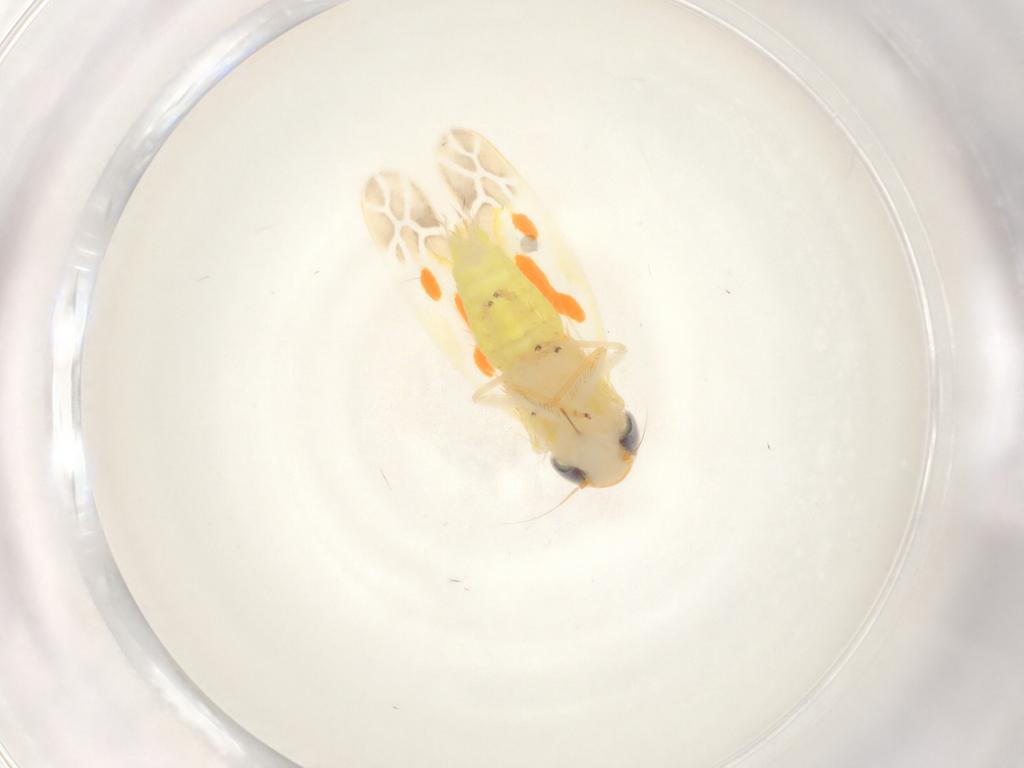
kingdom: Animalia
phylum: Arthropoda
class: Insecta
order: Hemiptera
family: Cicadellidae
